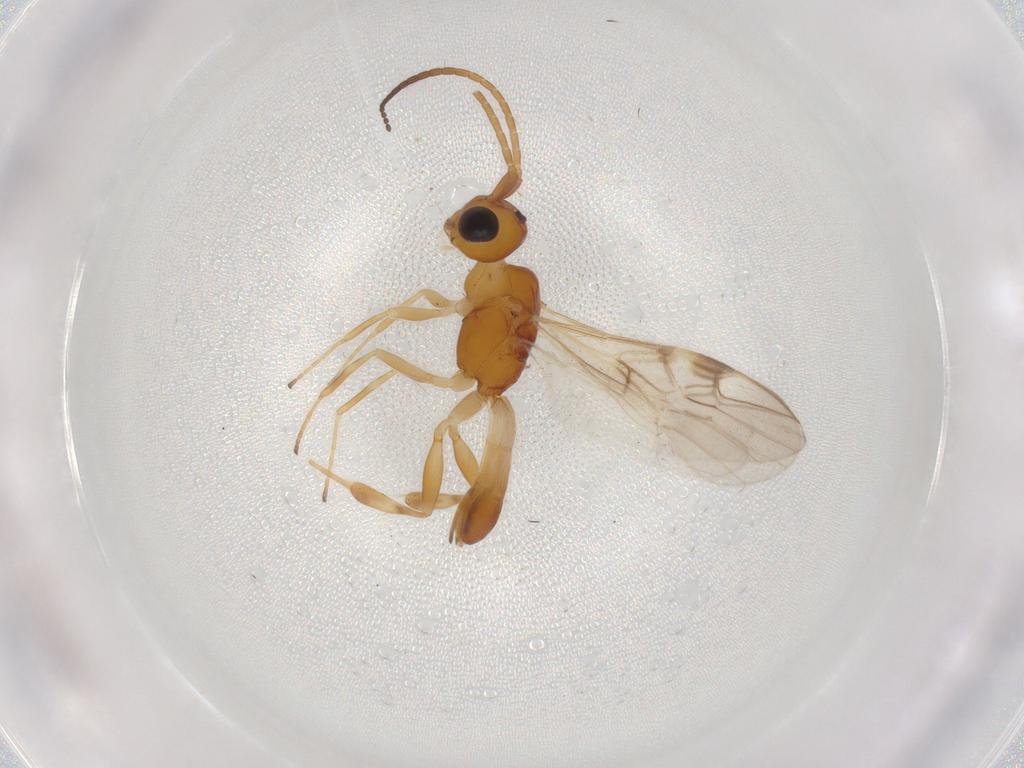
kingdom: Animalia
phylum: Arthropoda
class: Insecta
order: Hymenoptera
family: Braconidae
